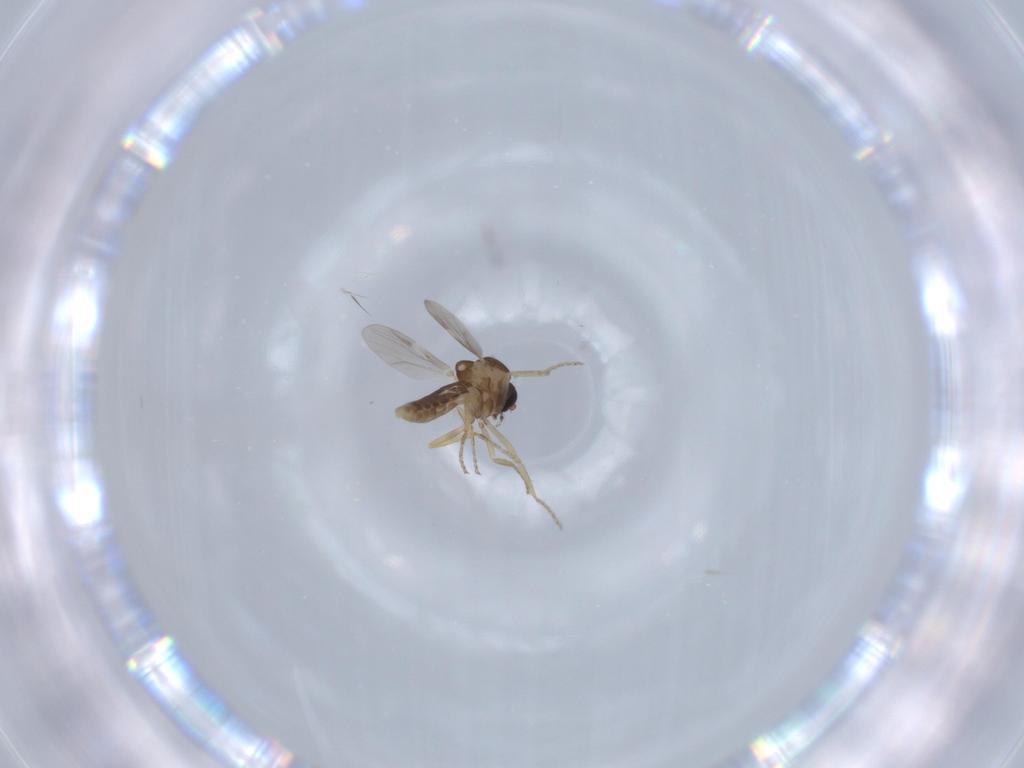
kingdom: Animalia
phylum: Arthropoda
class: Insecta
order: Diptera
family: Ceratopogonidae
